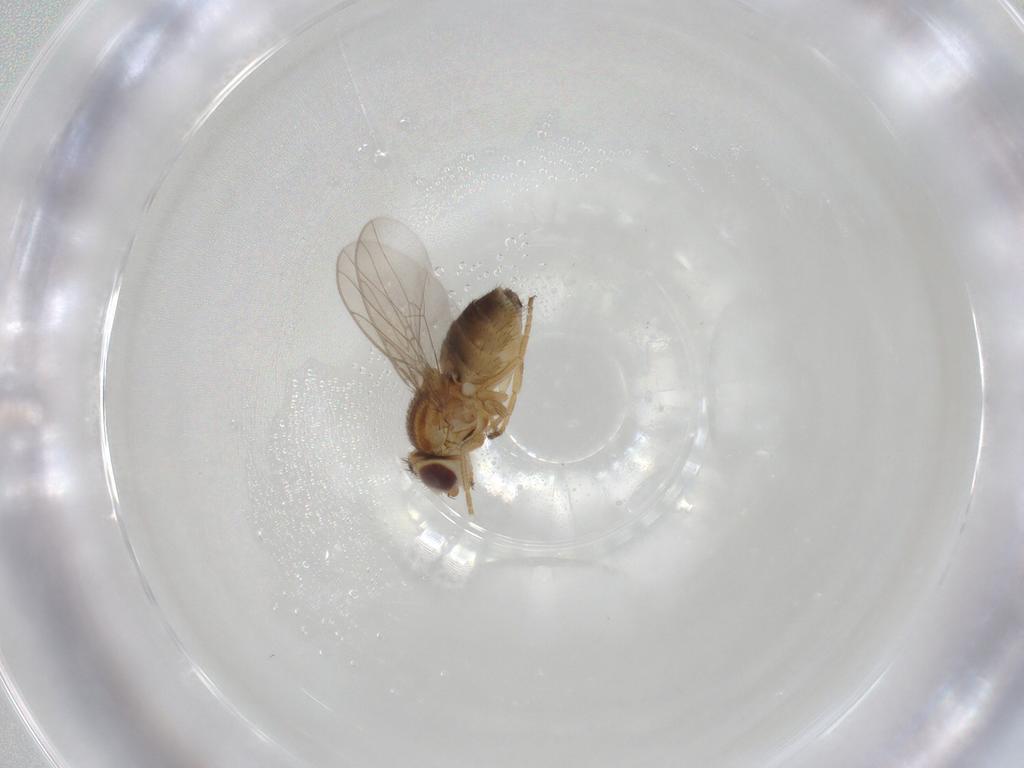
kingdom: Animalia
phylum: Arthropoda
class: Insecta
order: Diptera
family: Chloropidae
